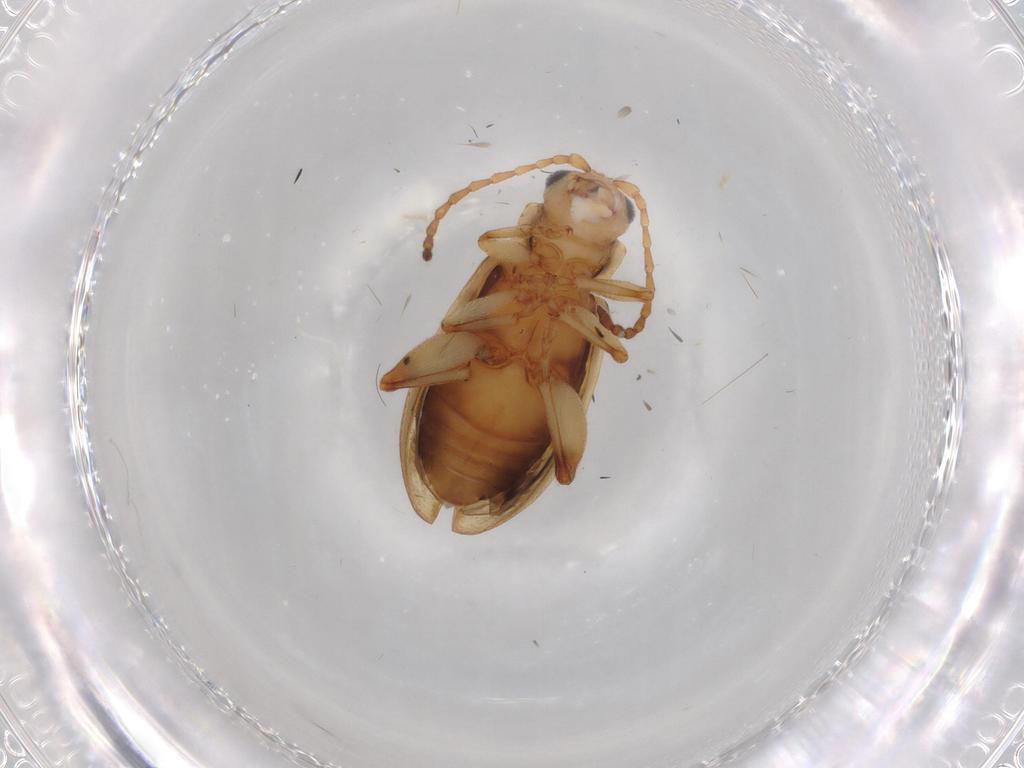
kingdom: Animalia
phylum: Arthropoda
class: Insecta
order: Coleoptera
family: Chrysomelidae
